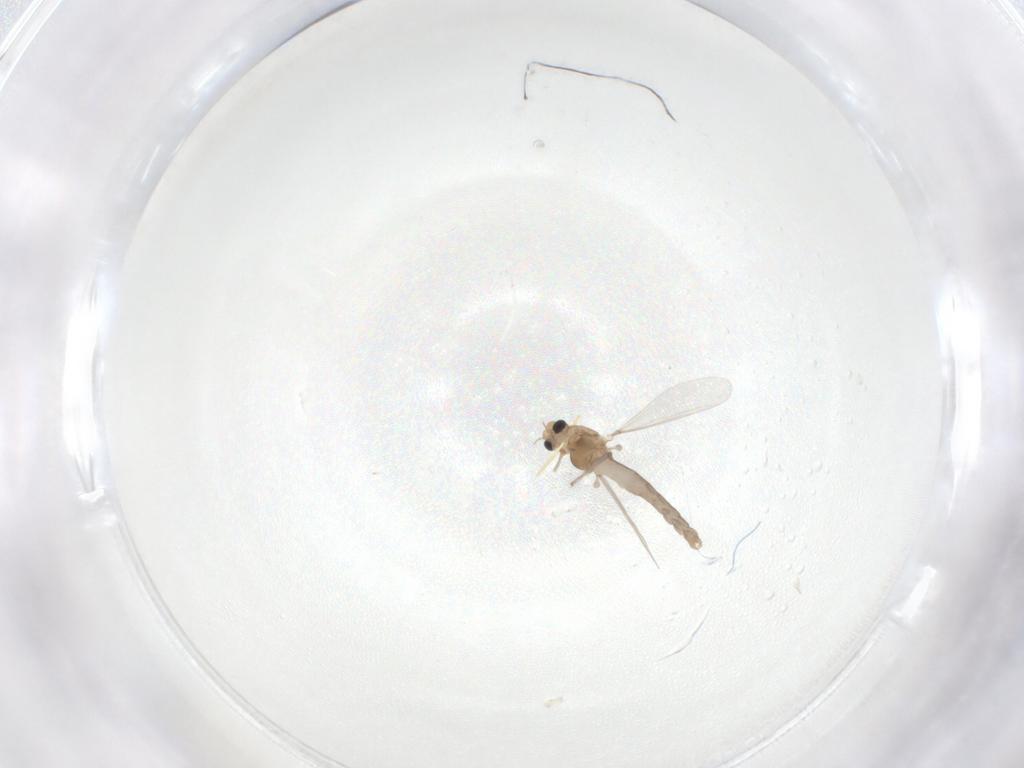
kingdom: Animalia
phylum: Arthropoda
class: Insecta
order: Diptera
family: Chironomidae
